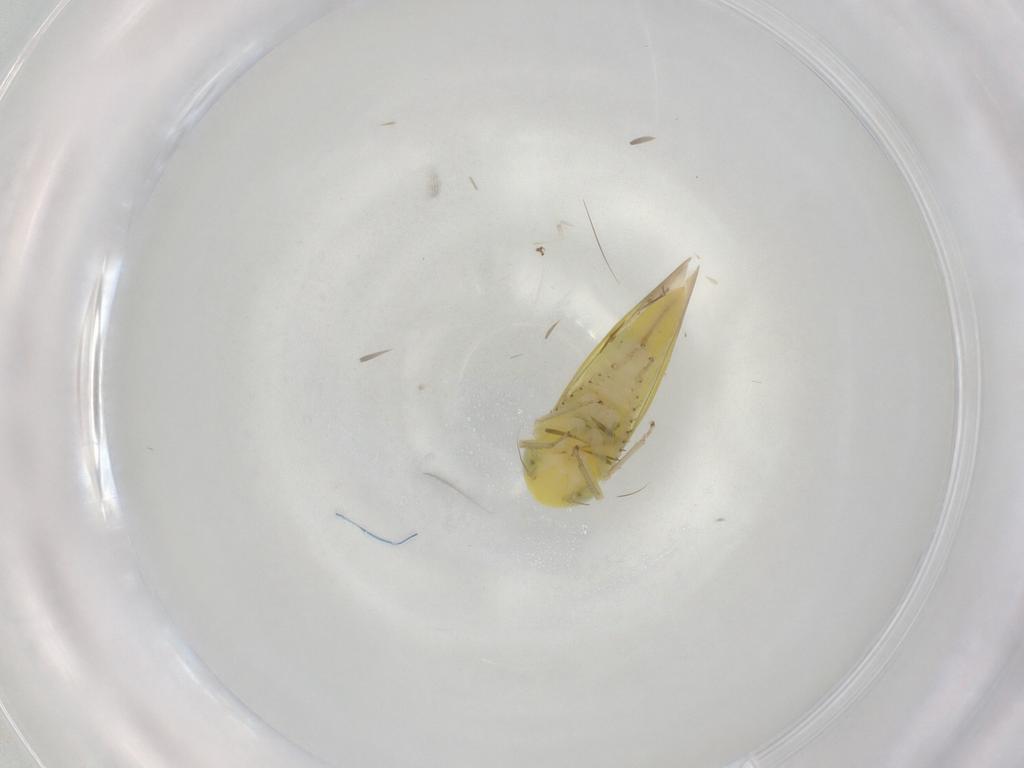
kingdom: Animalia
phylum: Arthropoda
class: Insecta
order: Hemiptera
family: Cicadellidae
